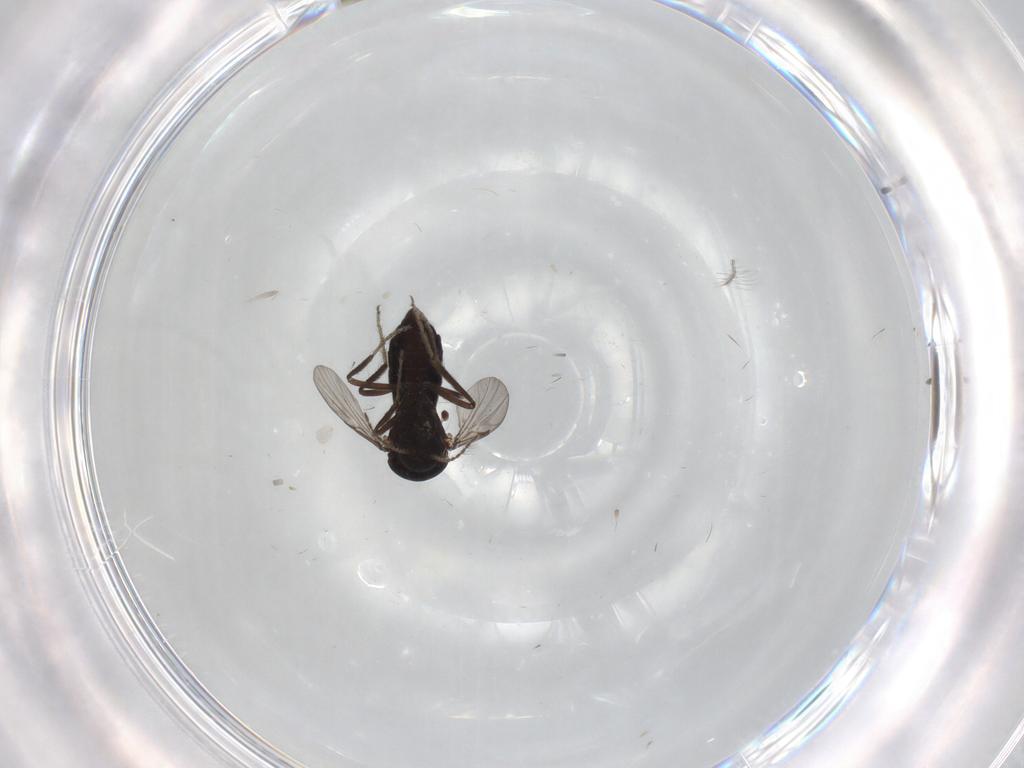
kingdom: Animalia
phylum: Arthropoda
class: Insecta
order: Diptera
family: Ceratopogonidae
